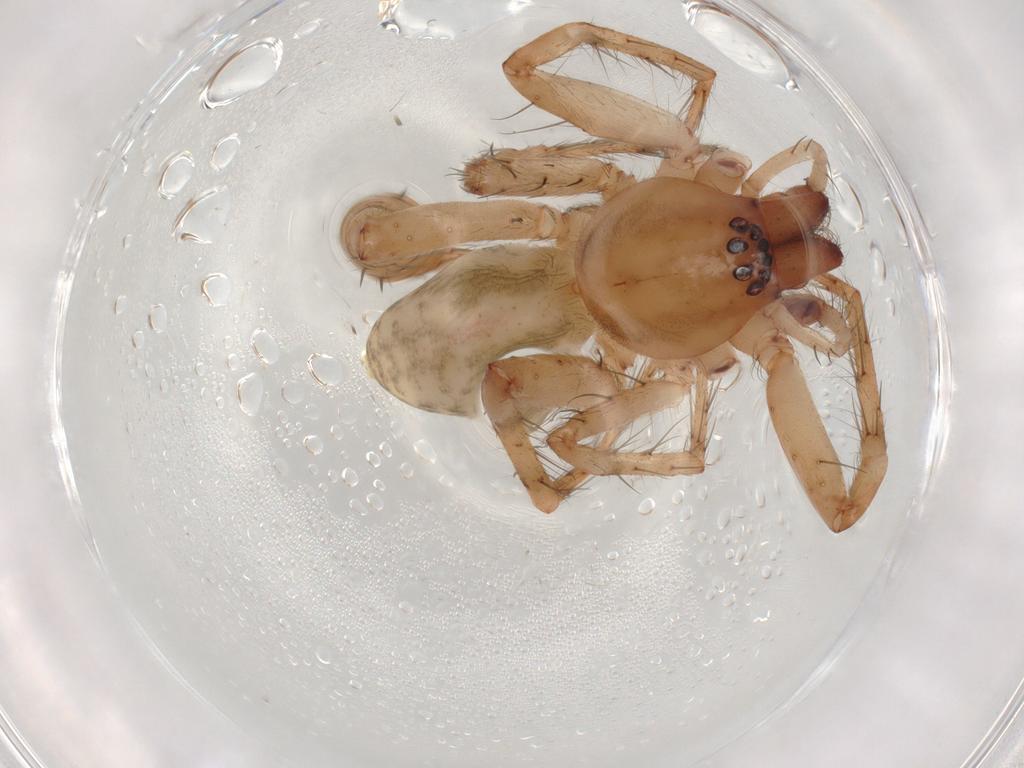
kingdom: Animalia
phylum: Arthropoda
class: Arachnida
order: Araneae
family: Anyphaenidae
